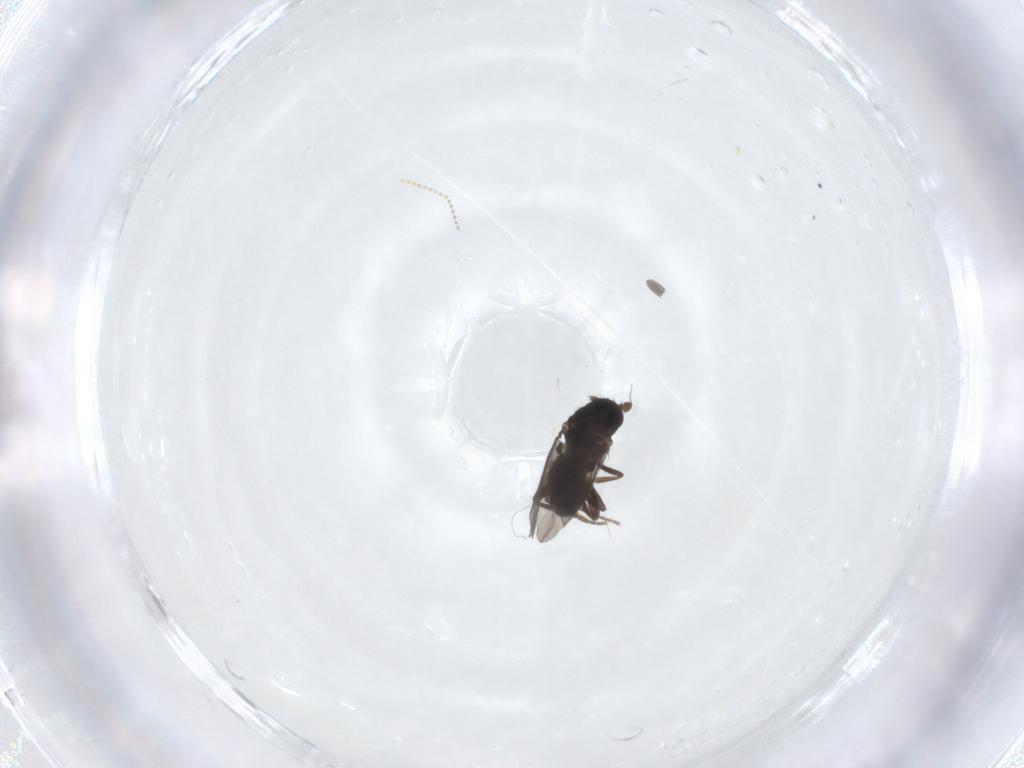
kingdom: Animalia
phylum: Arthropoda
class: Insecta
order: Diptera
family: Sphaeroceridae
